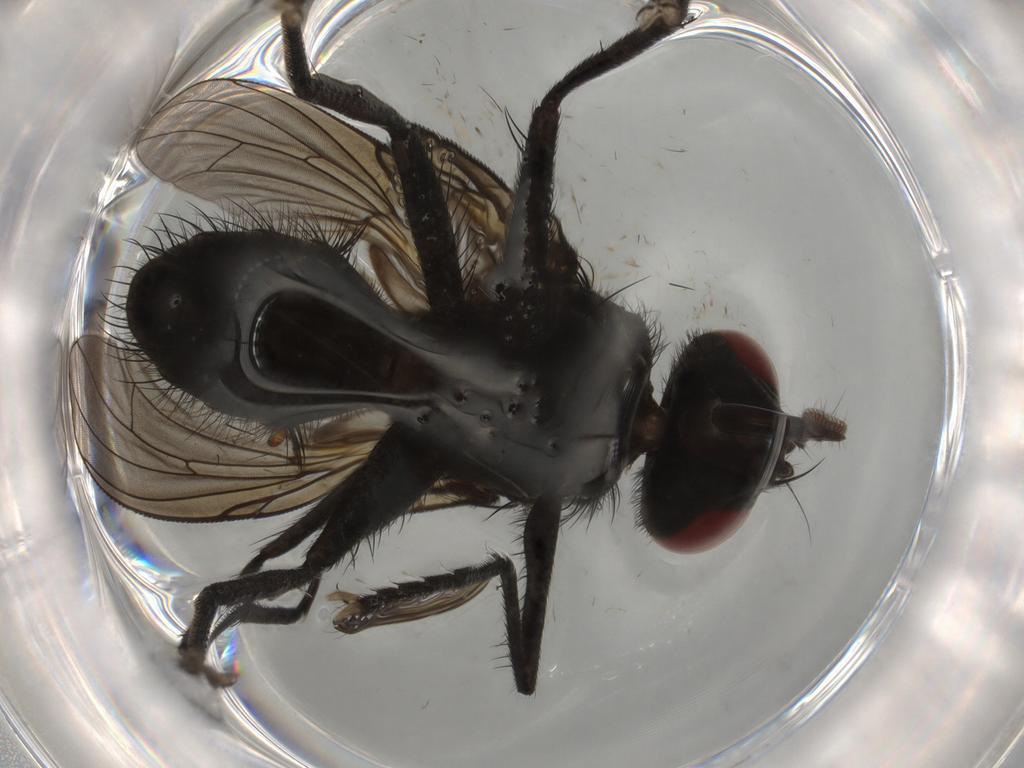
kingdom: Animalia
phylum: Arthropoda
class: Insecta
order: Diptera
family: Muscidae
